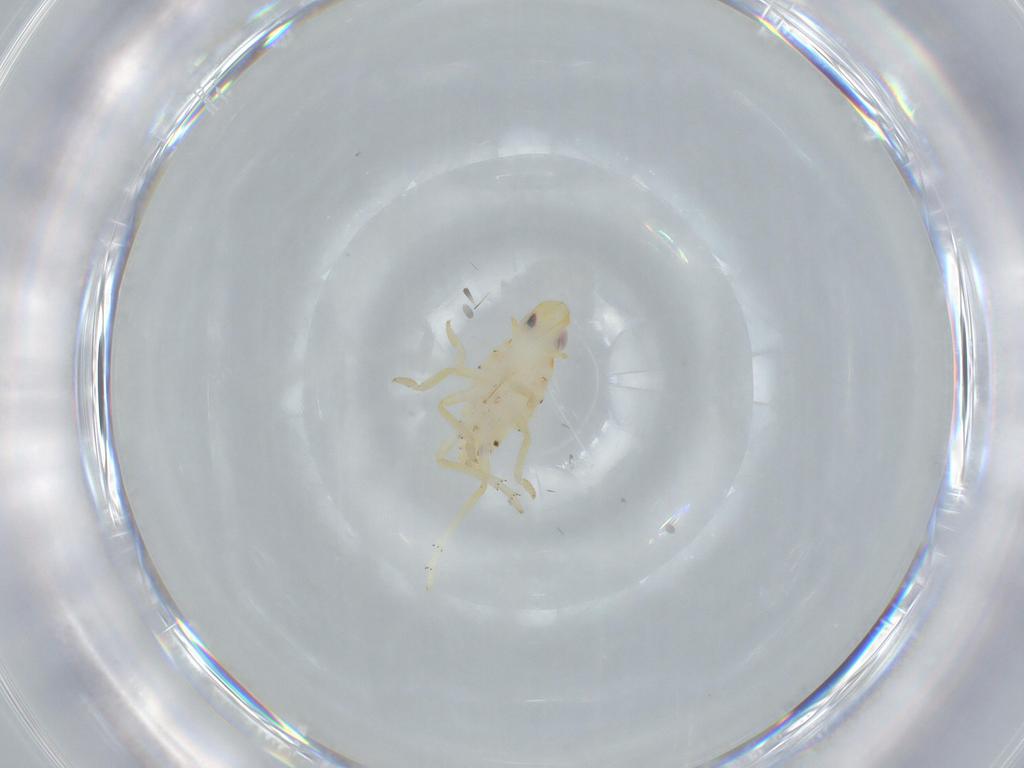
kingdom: Animalia
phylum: Arthropoda
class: Insecta
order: Hemiptera
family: Tropiduchidae
